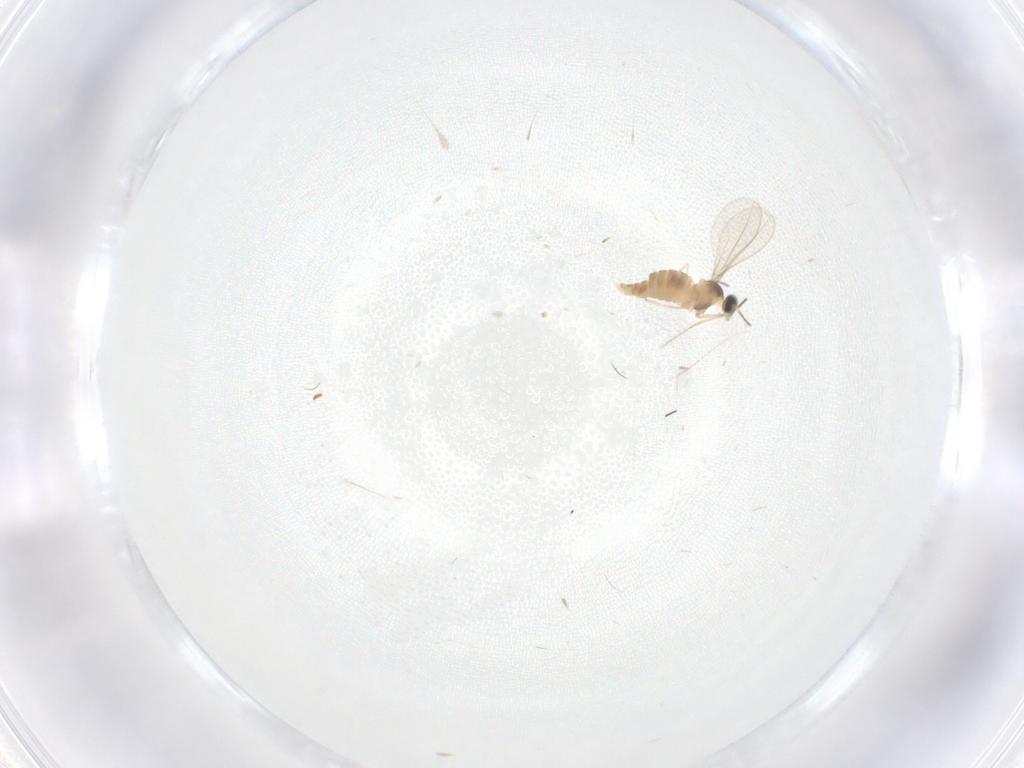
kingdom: Animalia
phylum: Arthropoda
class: Insecta
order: Diptera
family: Cecidomyiidae
